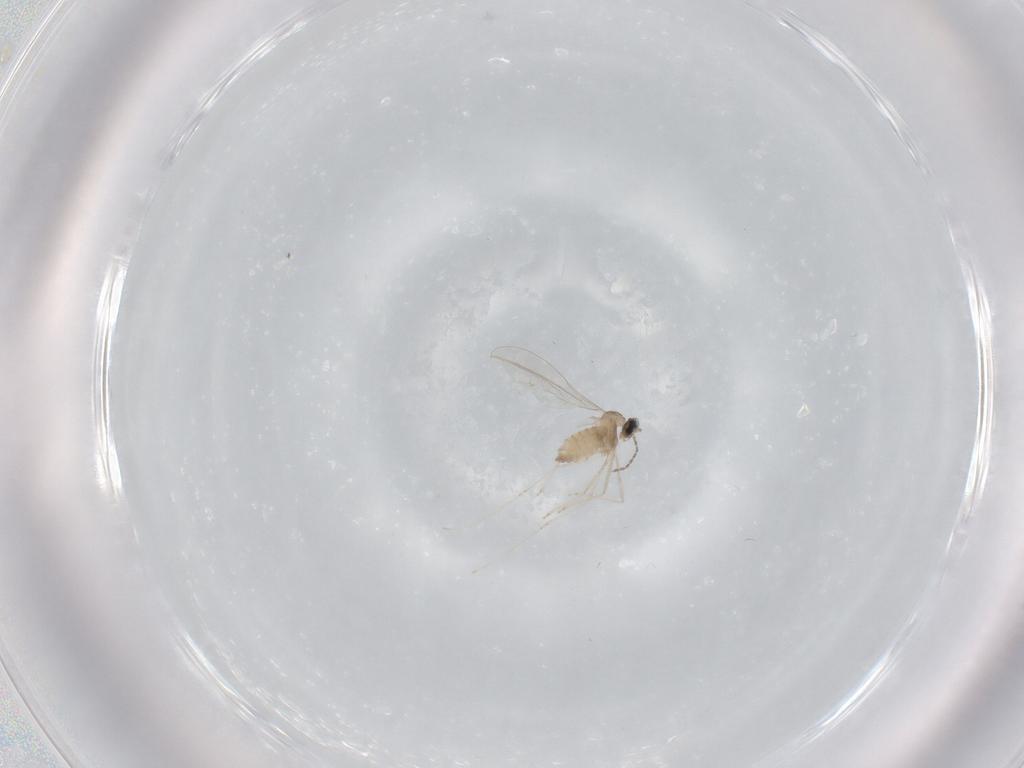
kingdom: Animalia
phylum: Arthropoda
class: Insecta
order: Diptera
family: Cecidomyiidae
